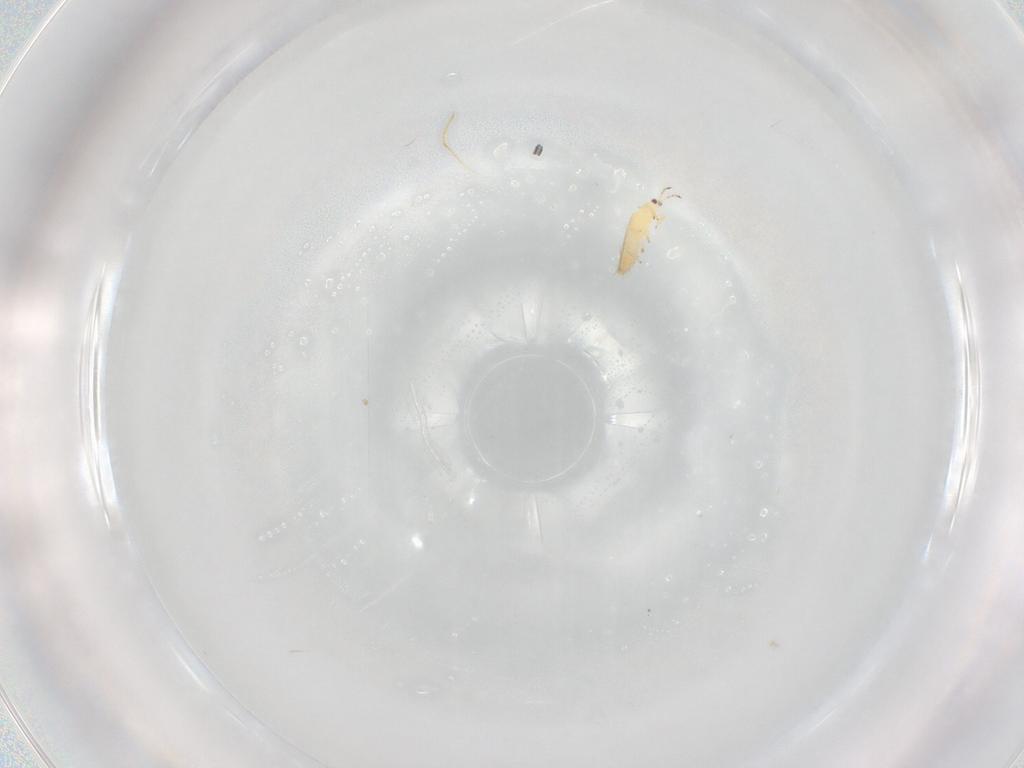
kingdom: Animalia
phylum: Arthropoda
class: Insecta
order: Thysanoptera
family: Thripidae
